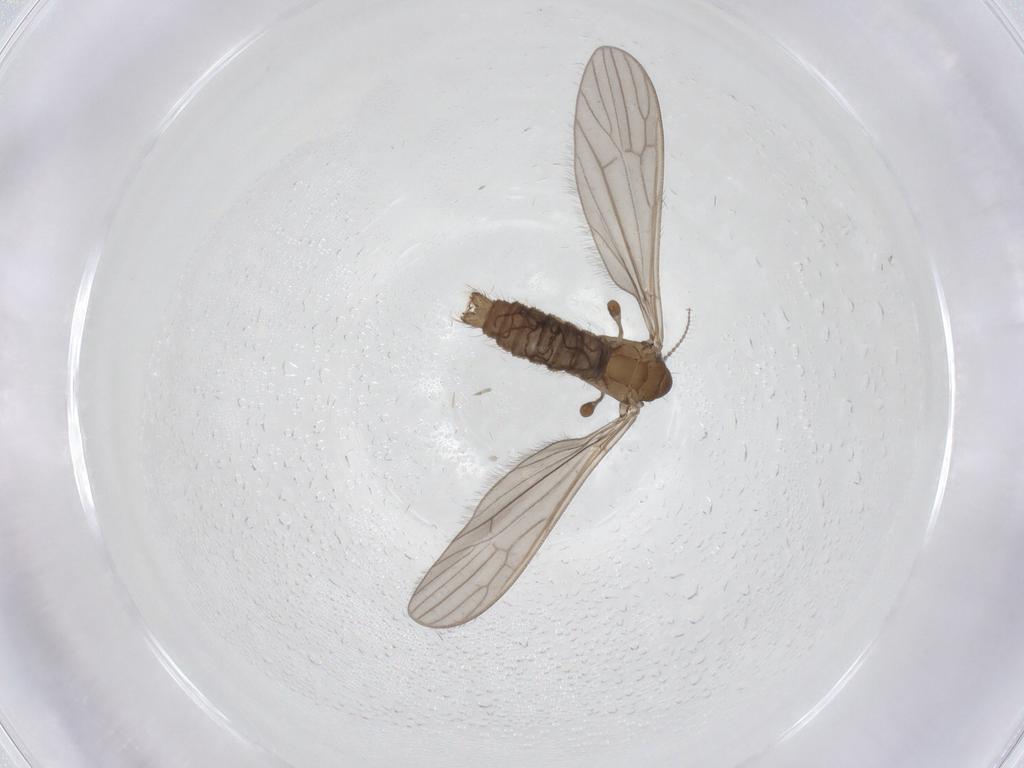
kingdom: Animalia
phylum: Arthropoda
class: Insecta
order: Diptera
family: Limoniidae
